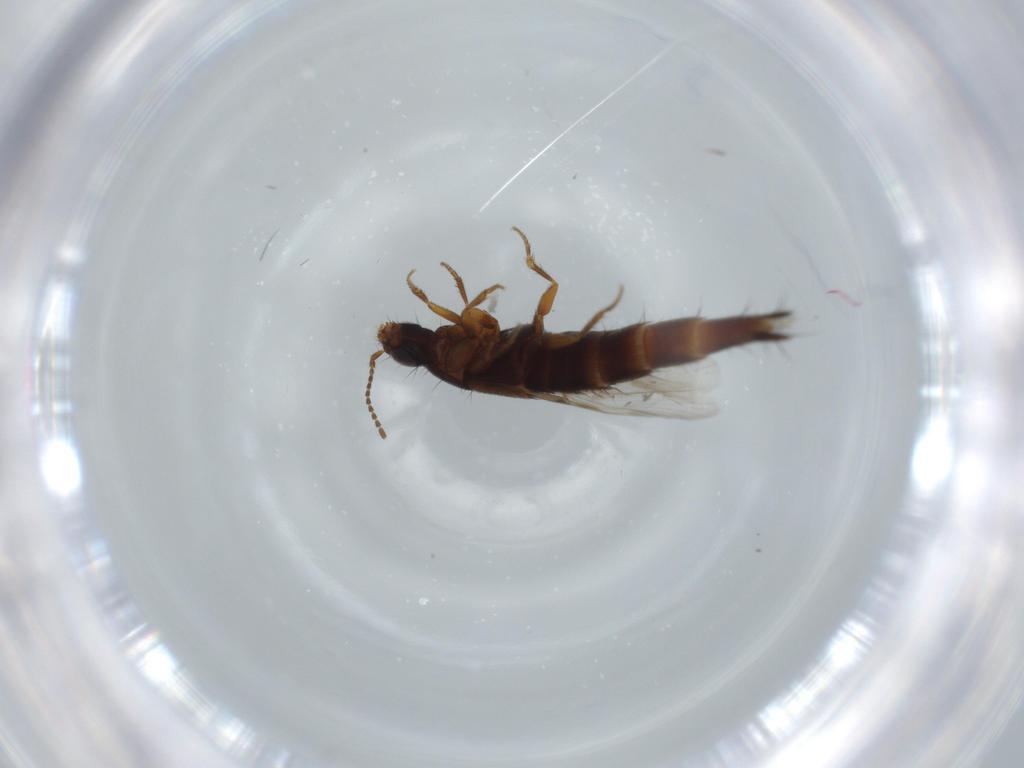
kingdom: Animalia
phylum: Arthropoda
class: Insecta
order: Coleoptera
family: Staphylinidae
